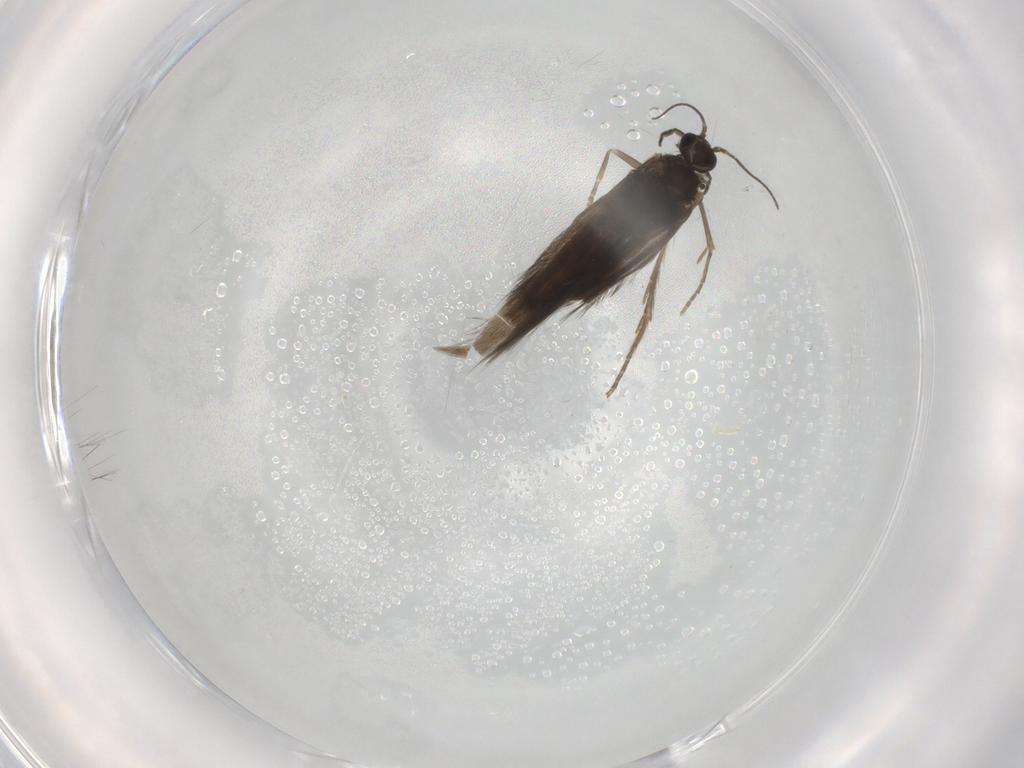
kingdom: Animalia
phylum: Arthropoda
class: Insecta
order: Trichoptera
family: Hydroptilidae
